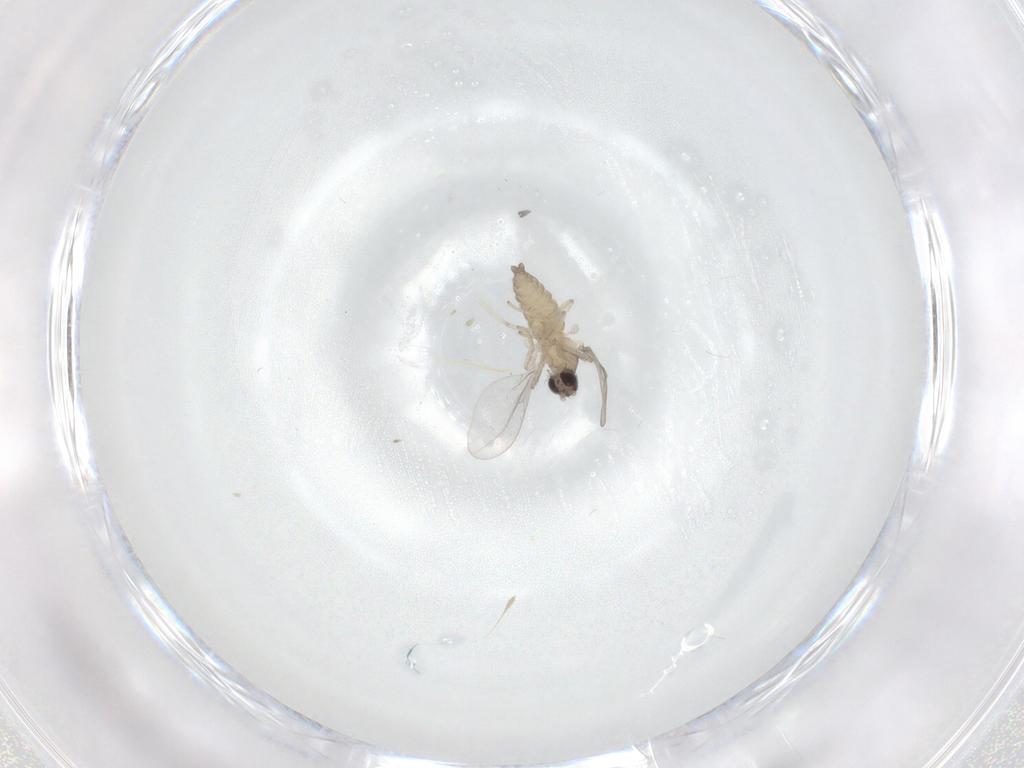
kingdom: Animalia
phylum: Arthropoda
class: Insecta
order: Diptera
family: Cecidomyiidae
